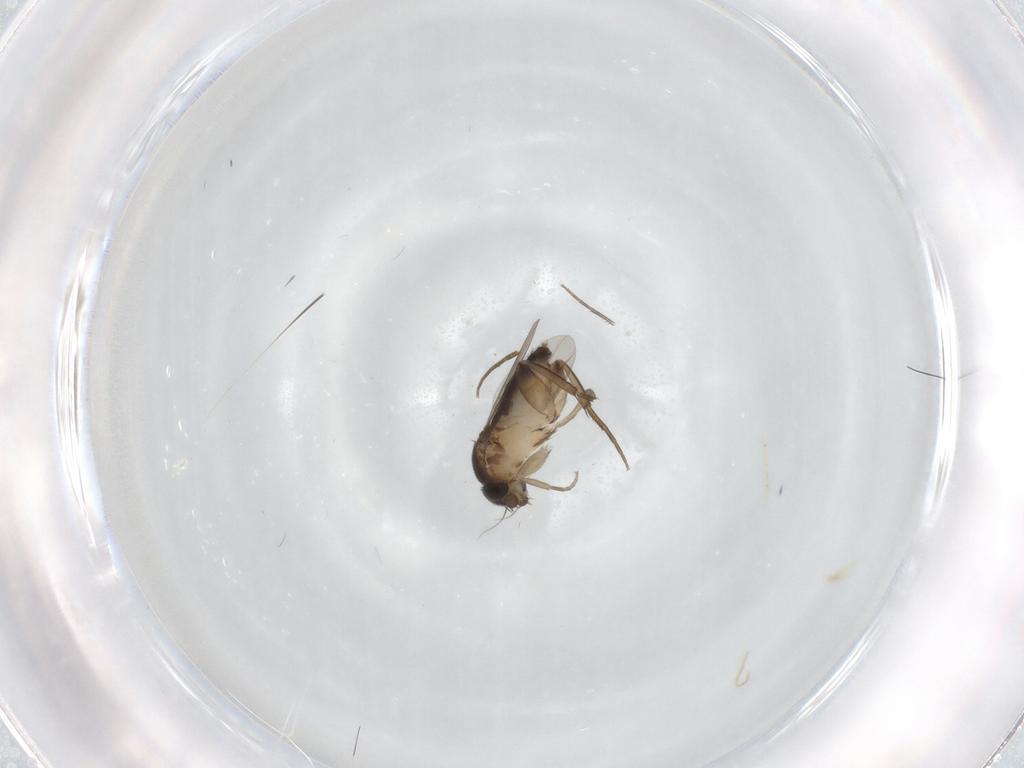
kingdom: Animalia
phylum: Arthropoda
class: Insecta
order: Diptera
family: Phoridae
